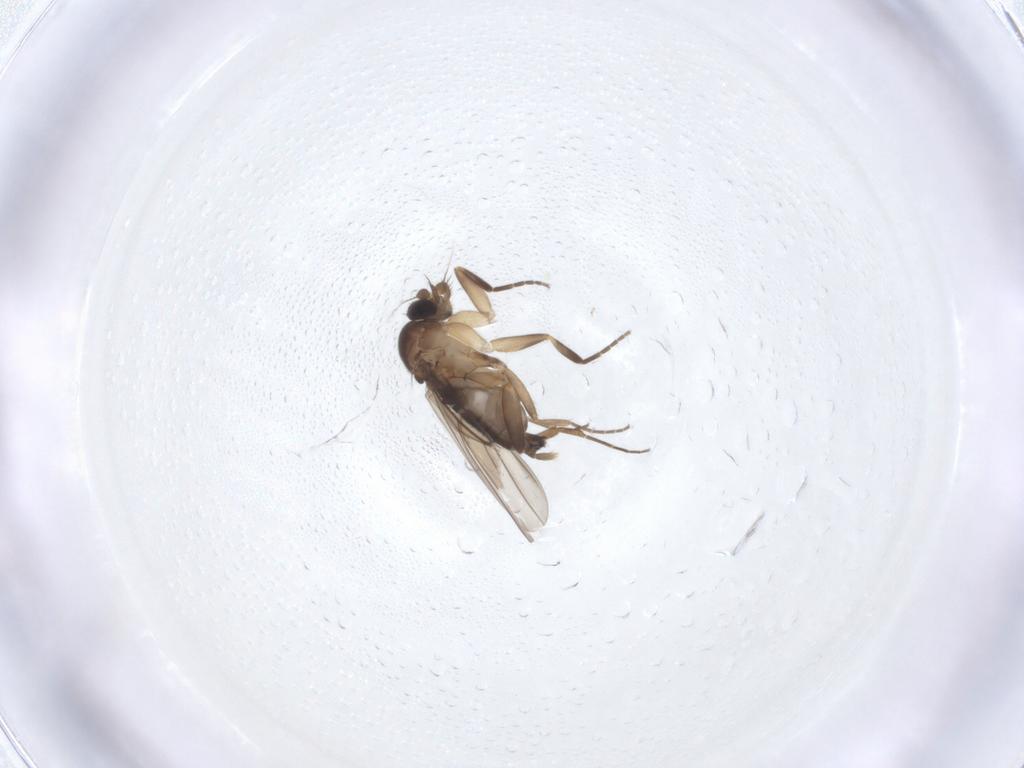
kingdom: Animalia
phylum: Arthropoda
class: Insecta
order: Diptera
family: Phoridae
